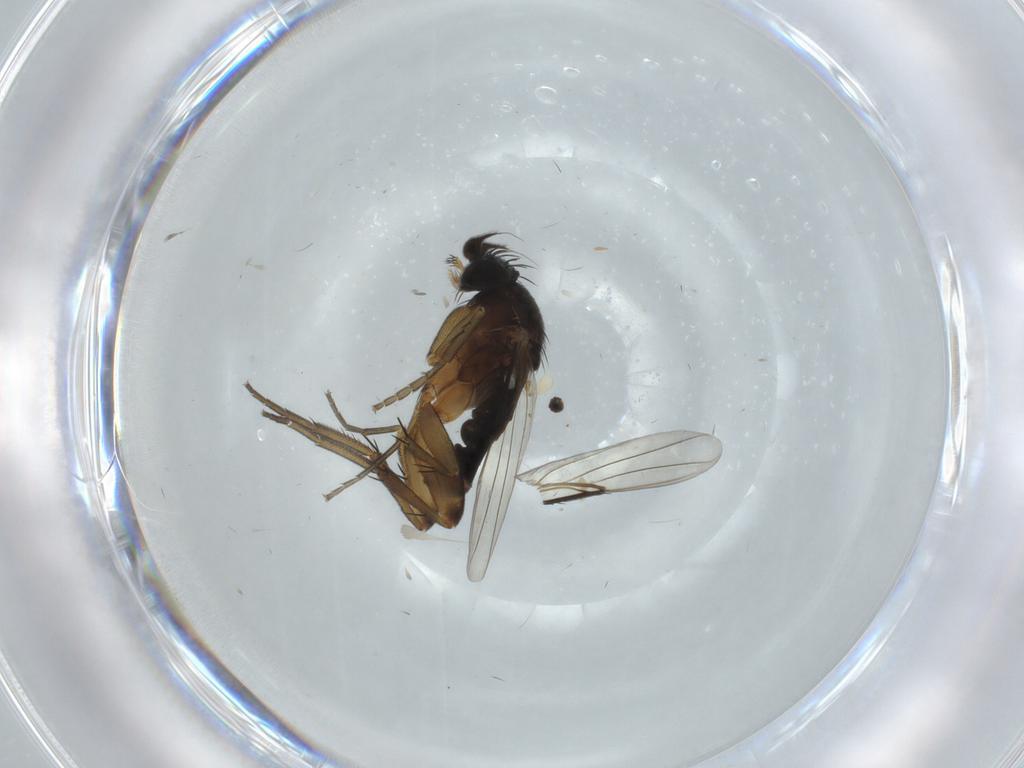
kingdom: Animalia
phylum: Arthropoda
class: Insecta
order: Diptera
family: Phoridae
